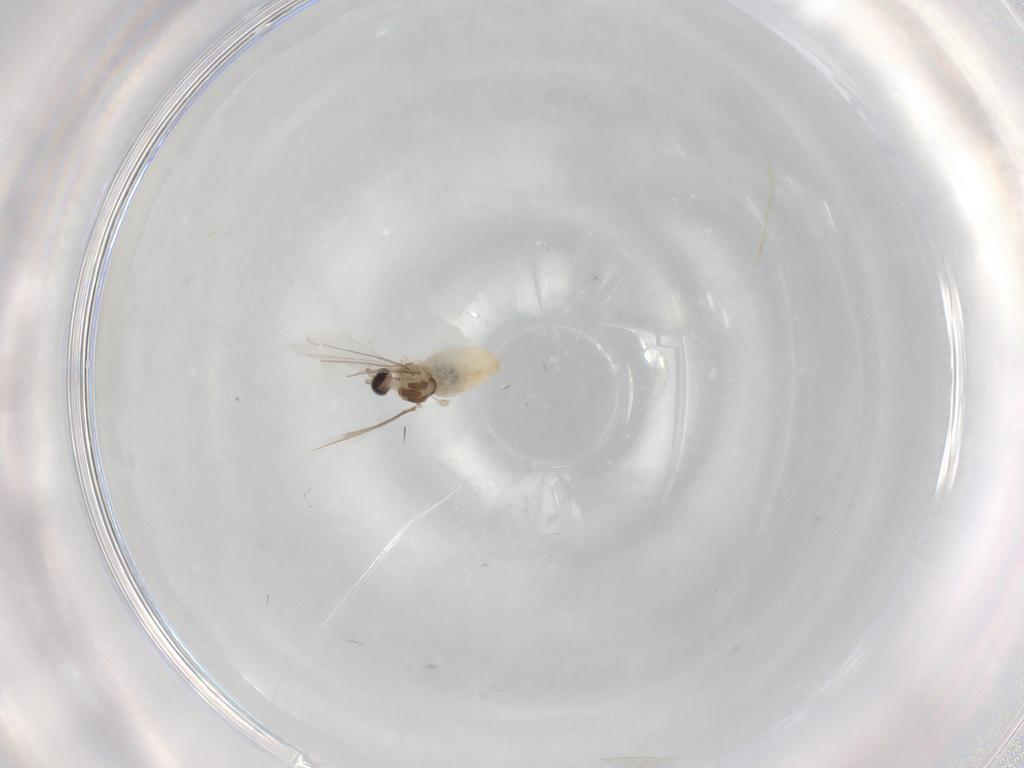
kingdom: Animalia
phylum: Arthropoda
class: Insecta
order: Diptera
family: Cecidomyiidae
